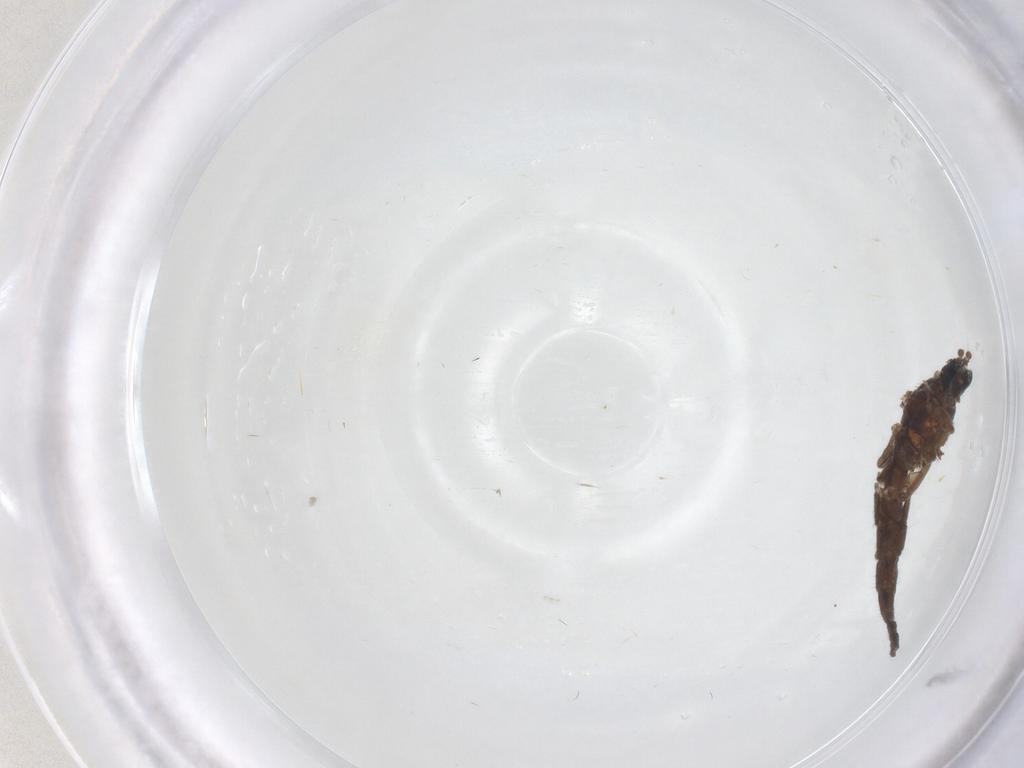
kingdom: Animalia
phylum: Arthropoda
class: Insecta
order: Diptera
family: Sciaridae
